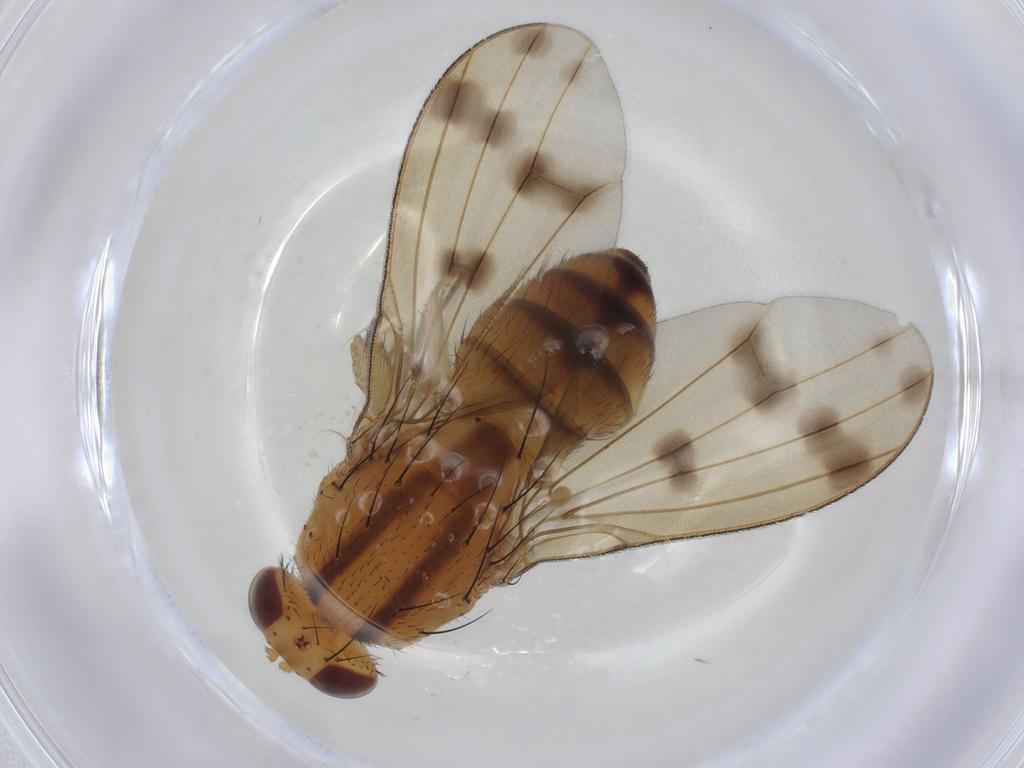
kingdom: Animalia
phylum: Arthropoda
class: Insecta
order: Diptera
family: Lauxaniidae
